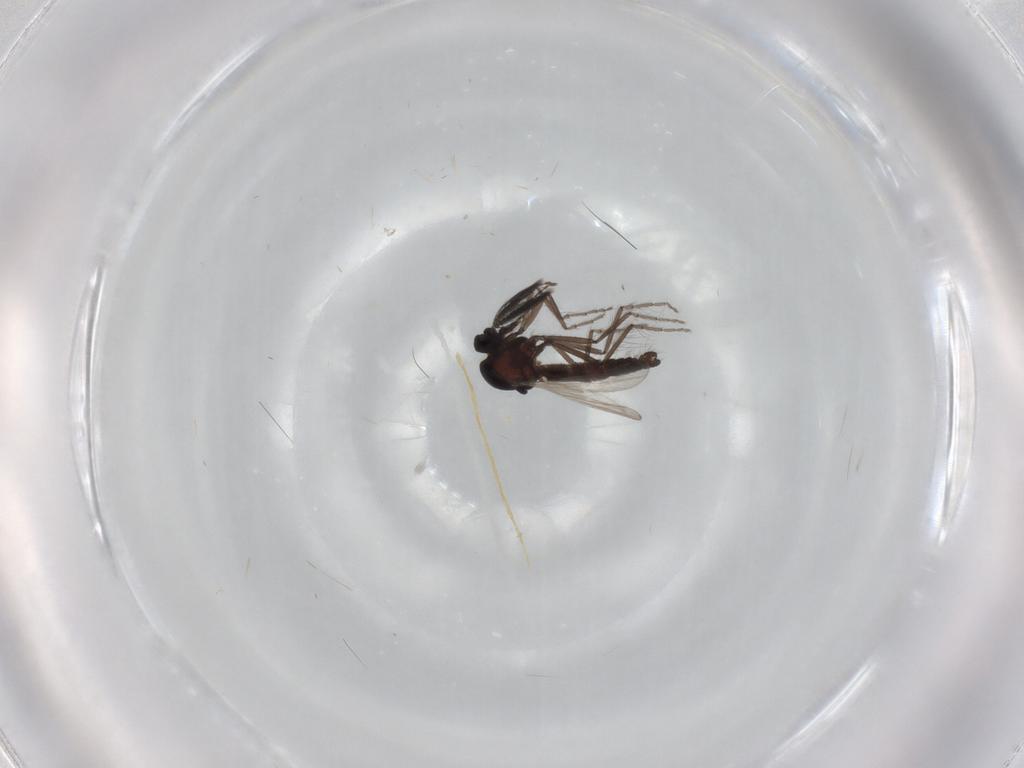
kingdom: Animalia
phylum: Arthropoda
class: Insecta
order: Diptera
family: Ceratopogonidae
